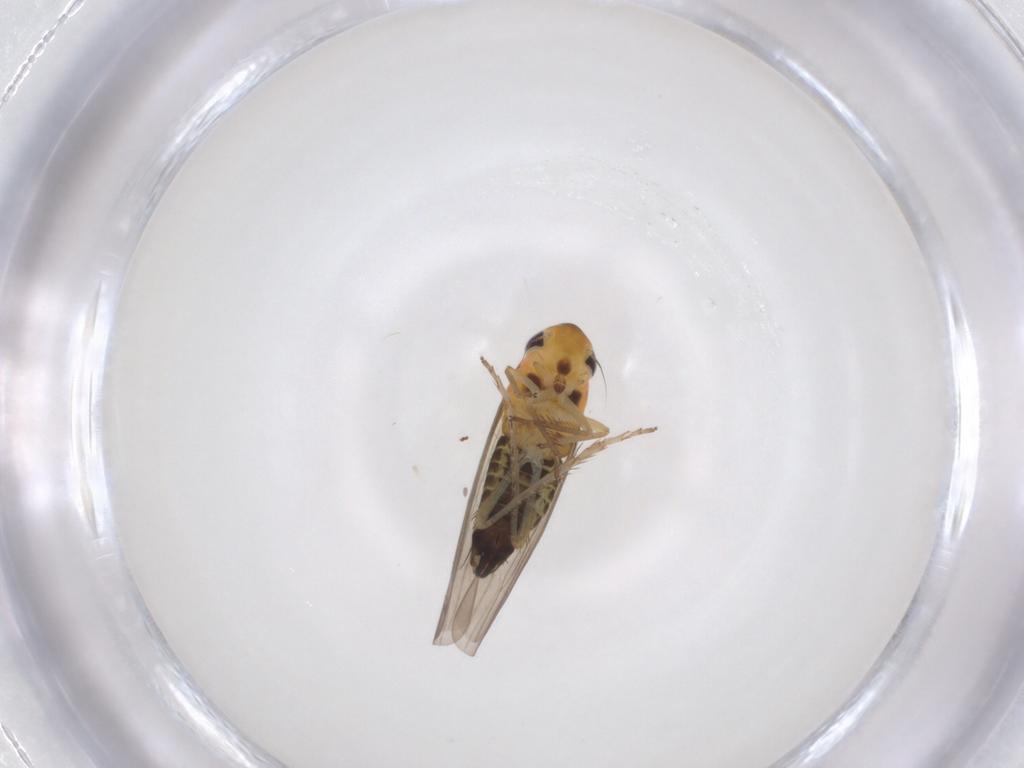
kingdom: Animalia
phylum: Arthropoda
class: Insecta
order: Hemiptera
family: Cicadellidae
